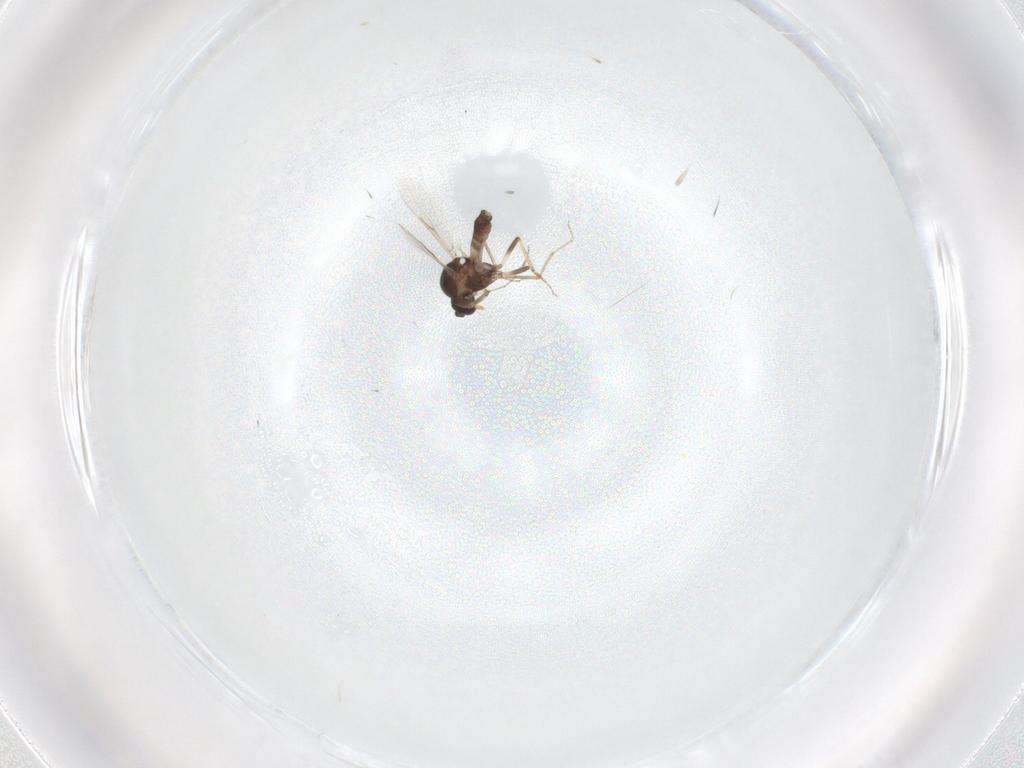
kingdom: Animalia
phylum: Arthropoda
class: Insecta
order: Diptera
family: Ceratopogonidae
